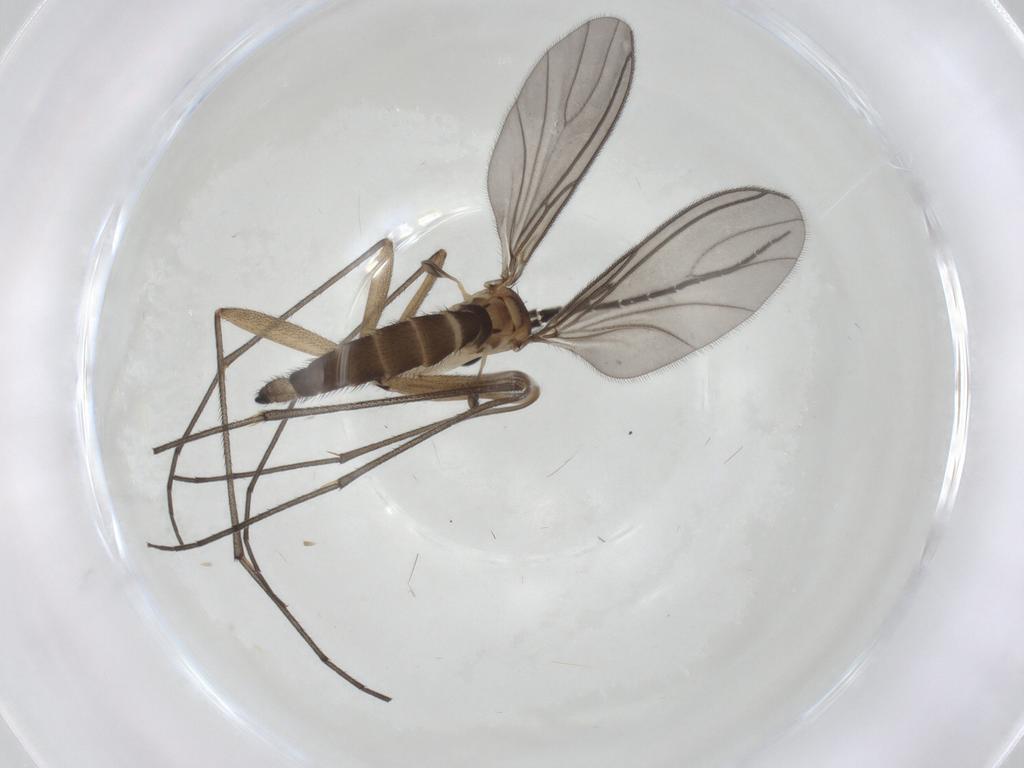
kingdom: Animalia
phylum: Arthropoda
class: Insecta
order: Diptera
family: Sciaridae
